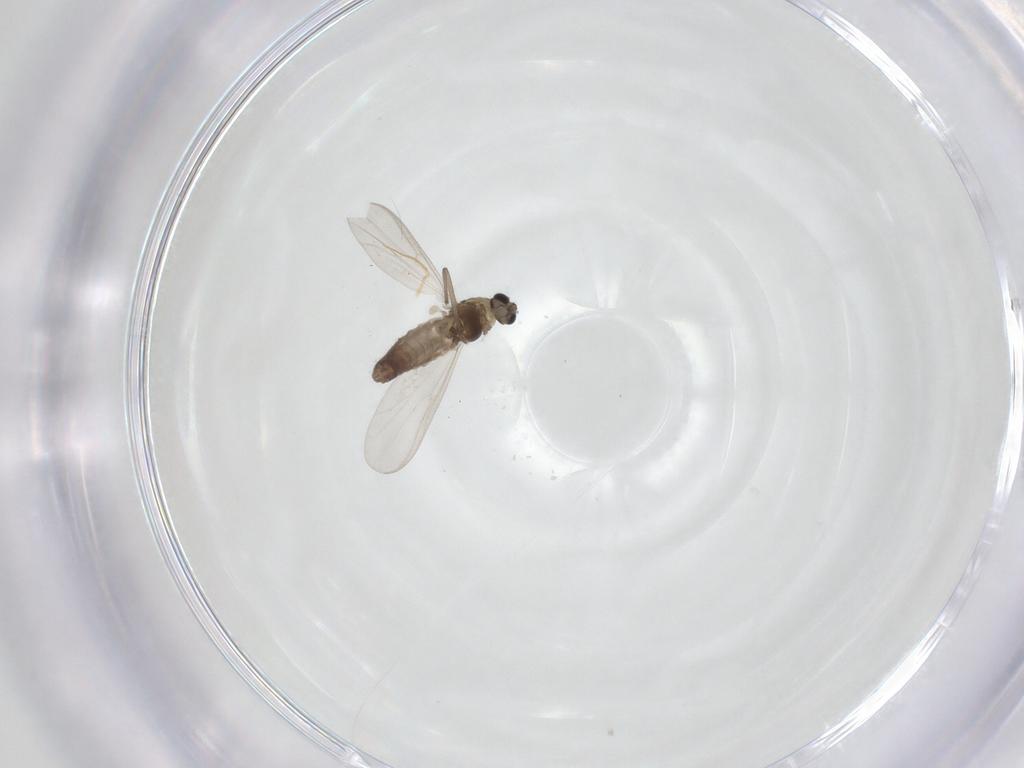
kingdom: Animalia
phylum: Arthropoda
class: Insecta
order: Diptera
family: Chironomidae
